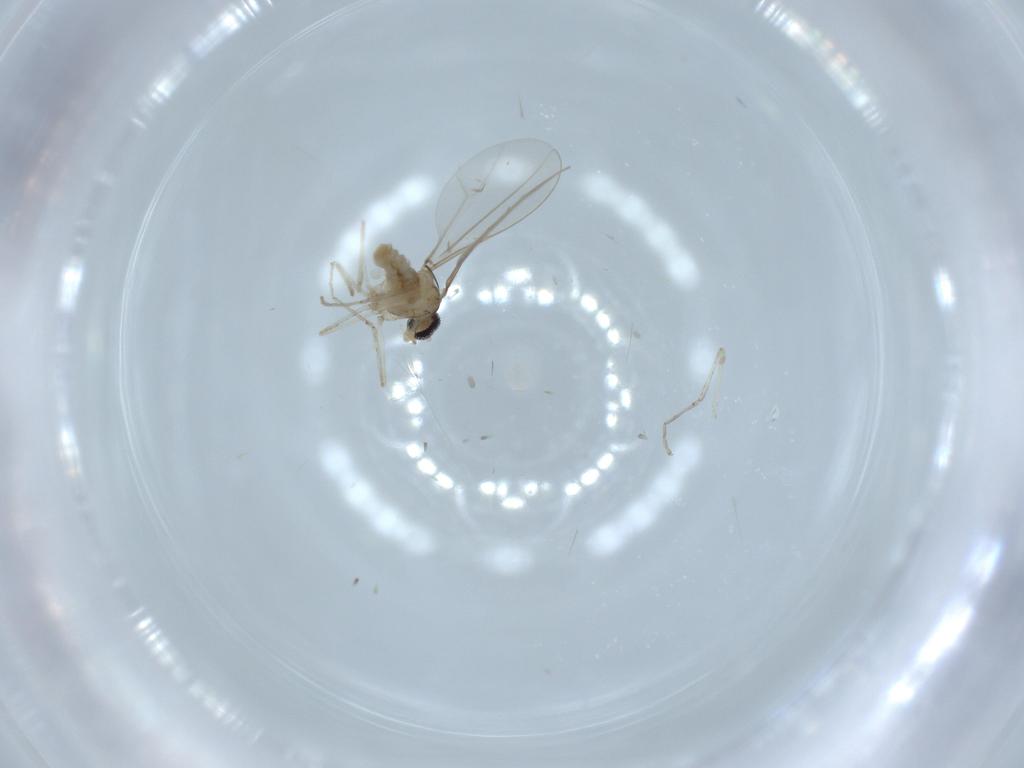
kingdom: Animalia
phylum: Arthropoda
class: Insecta
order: Diptera
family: Cecidomyiidae
